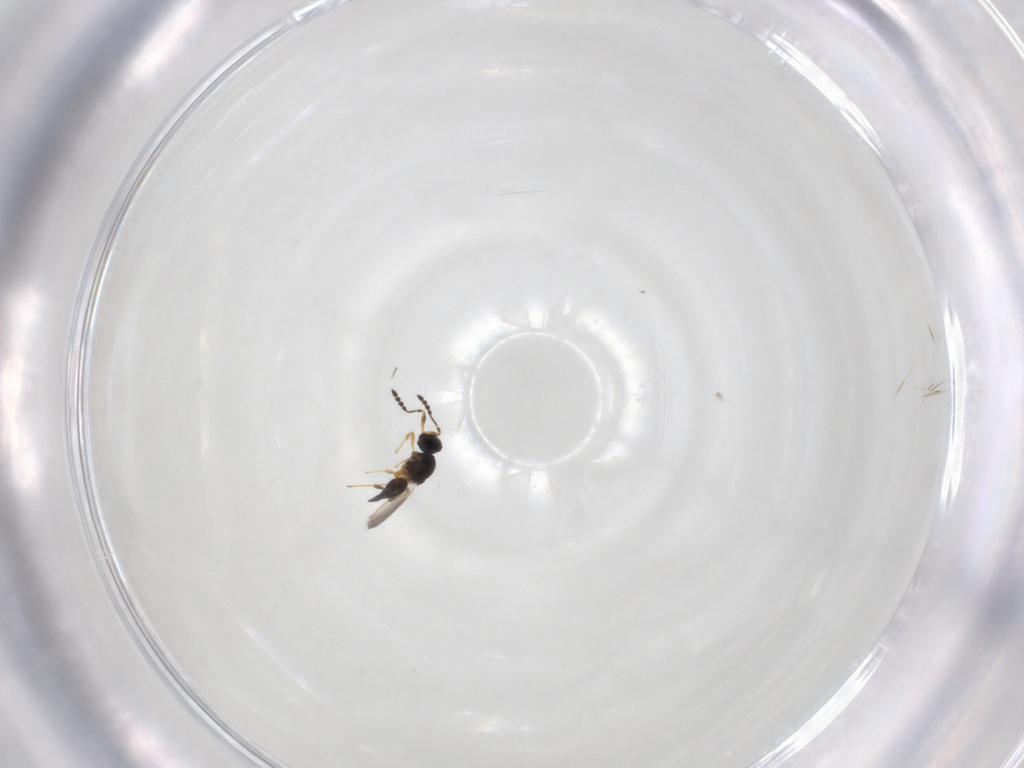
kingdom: Animalia
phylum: Arthropoda
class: Insecta
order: Hymenoptera
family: Platygastridae
